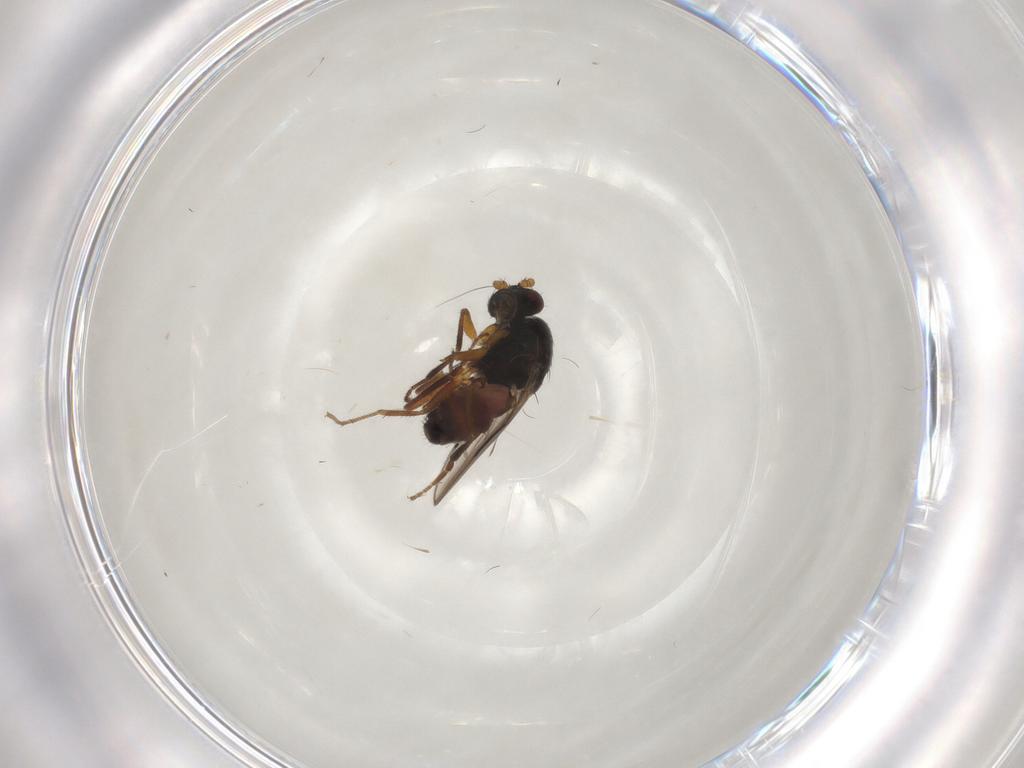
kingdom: Animalia
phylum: Arthropoda
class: Insecta
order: Diptera
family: Sphaeroceridae
